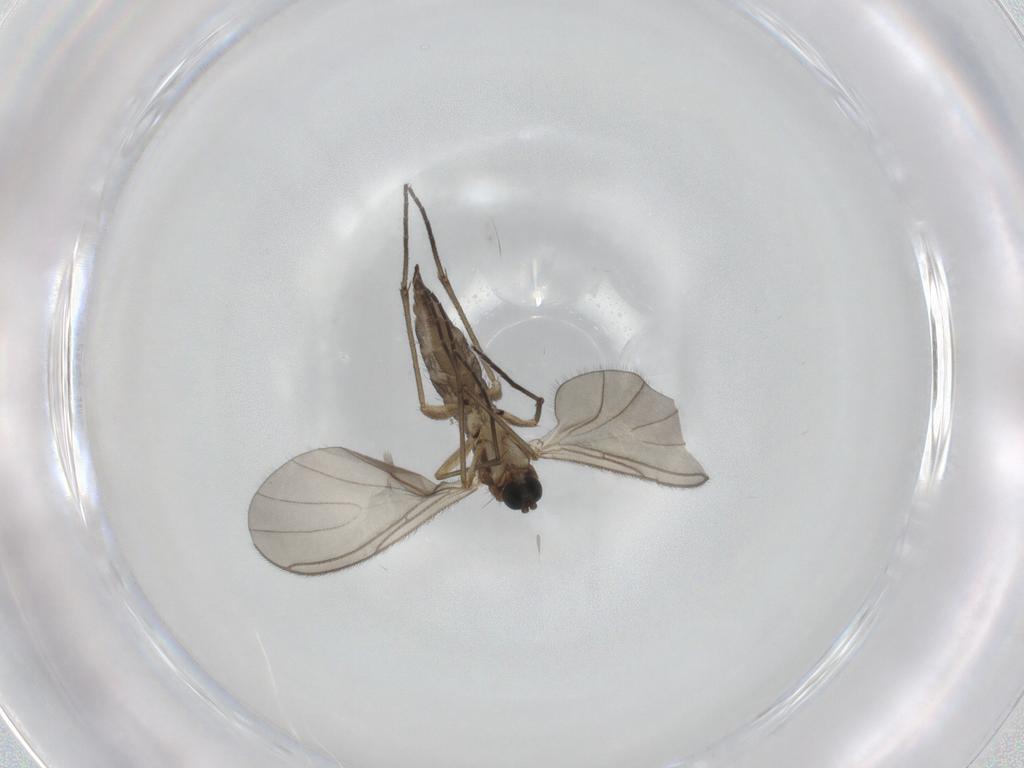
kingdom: Animalia
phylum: Arthropoda
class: Insecta
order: Diptera
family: Sciaridae
